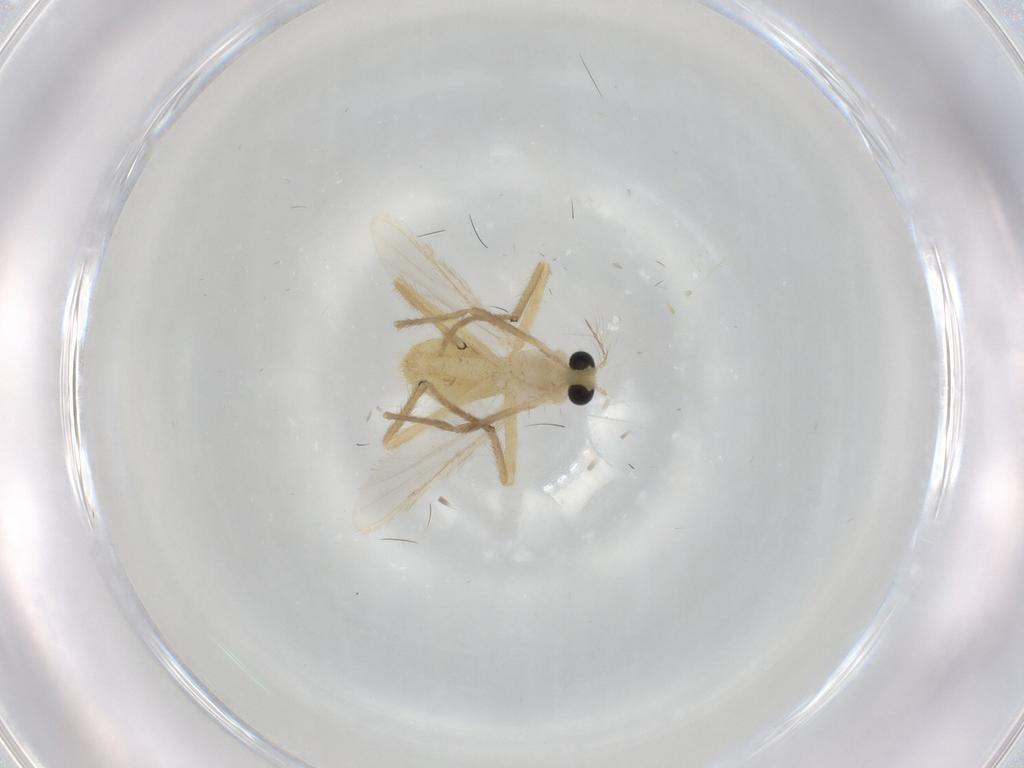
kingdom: Animalia
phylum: Arthropoda
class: Insecta
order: Diptera
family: Chironomidae
